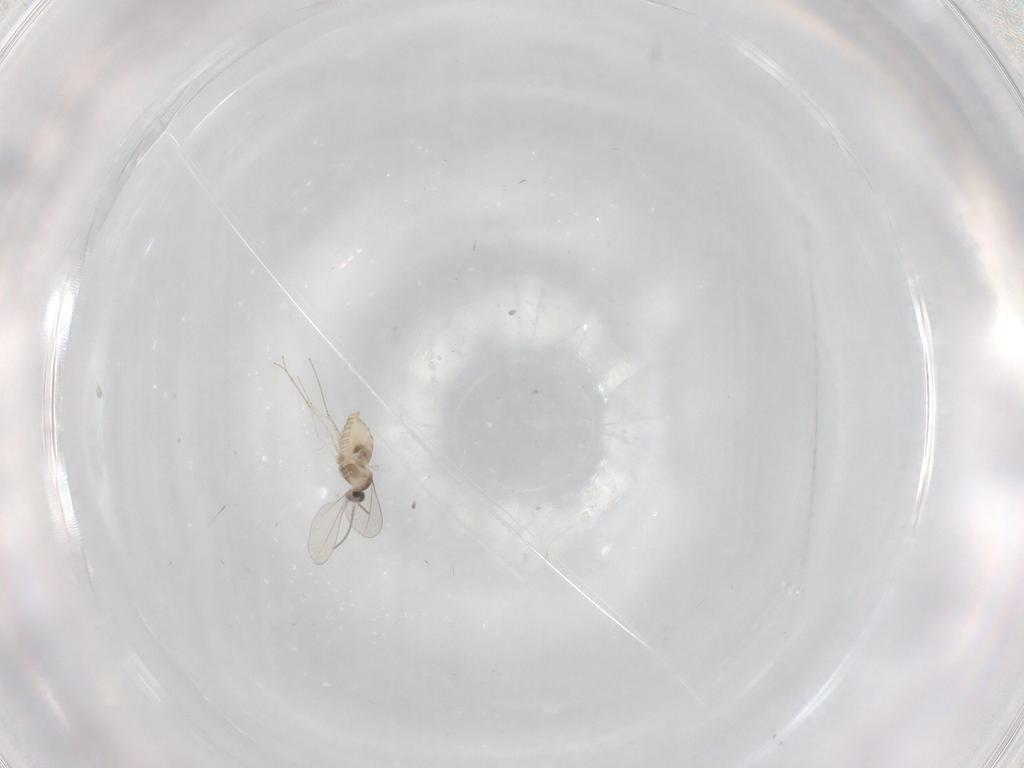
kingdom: Animalia
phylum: Arthropoda
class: Insecta
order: Diptera
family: Cecidomyiidae
